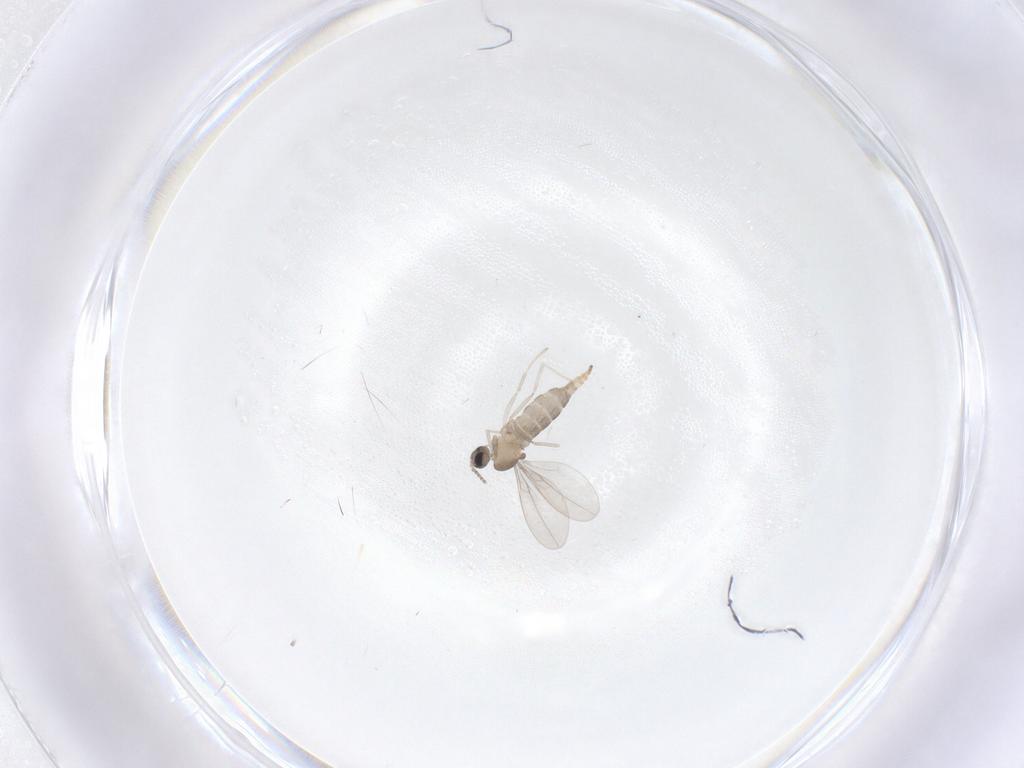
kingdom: Animalia
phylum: Arthropoda
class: Insecta
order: Diptera
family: Cecidomyiidae
